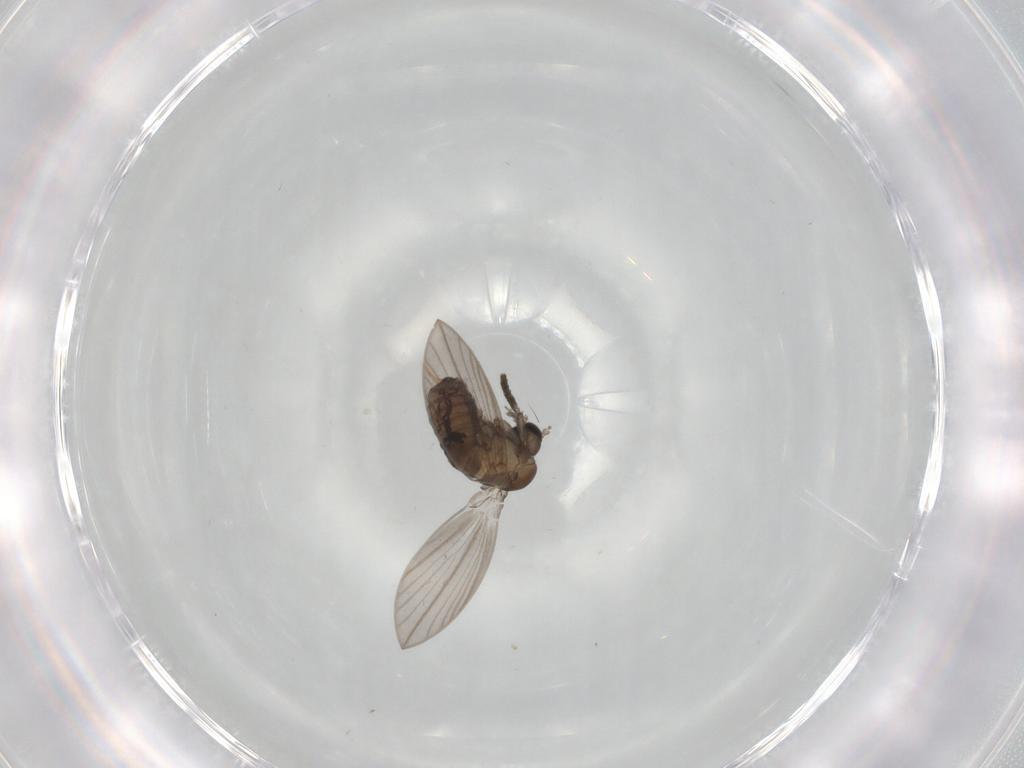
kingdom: Animalia
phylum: Arthropoda
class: Insecta
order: Diptera
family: Psychodidae
